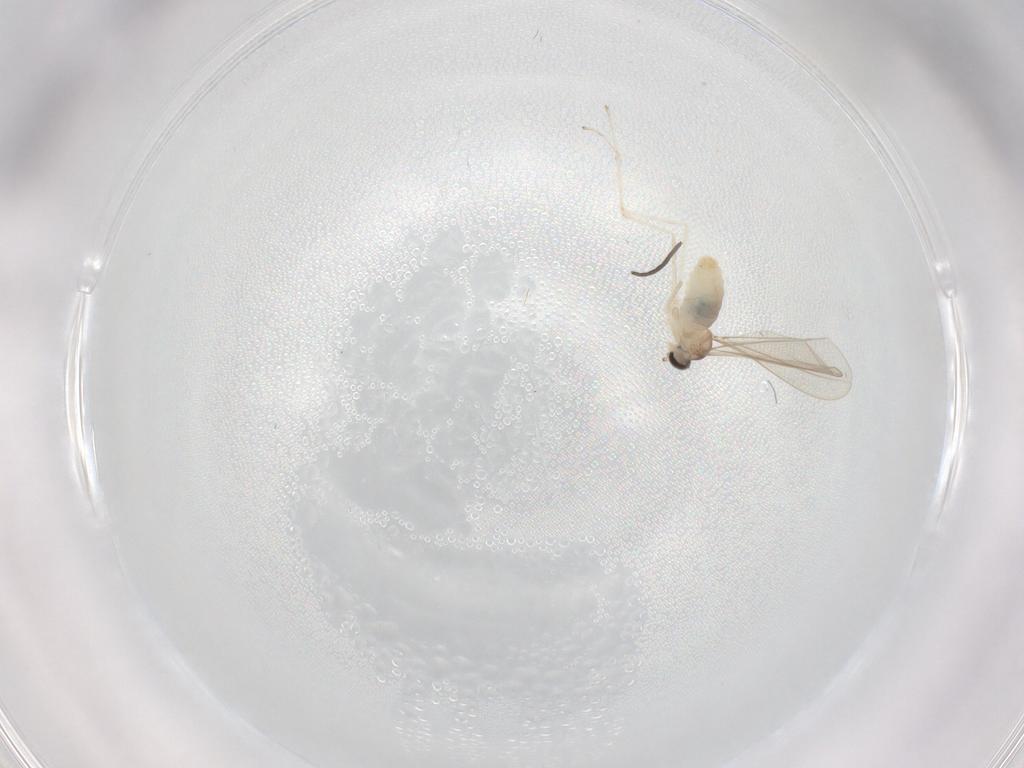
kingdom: Animalia
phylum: Arthropoda
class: Insecta
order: Diptera
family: Cecidomyiidae
